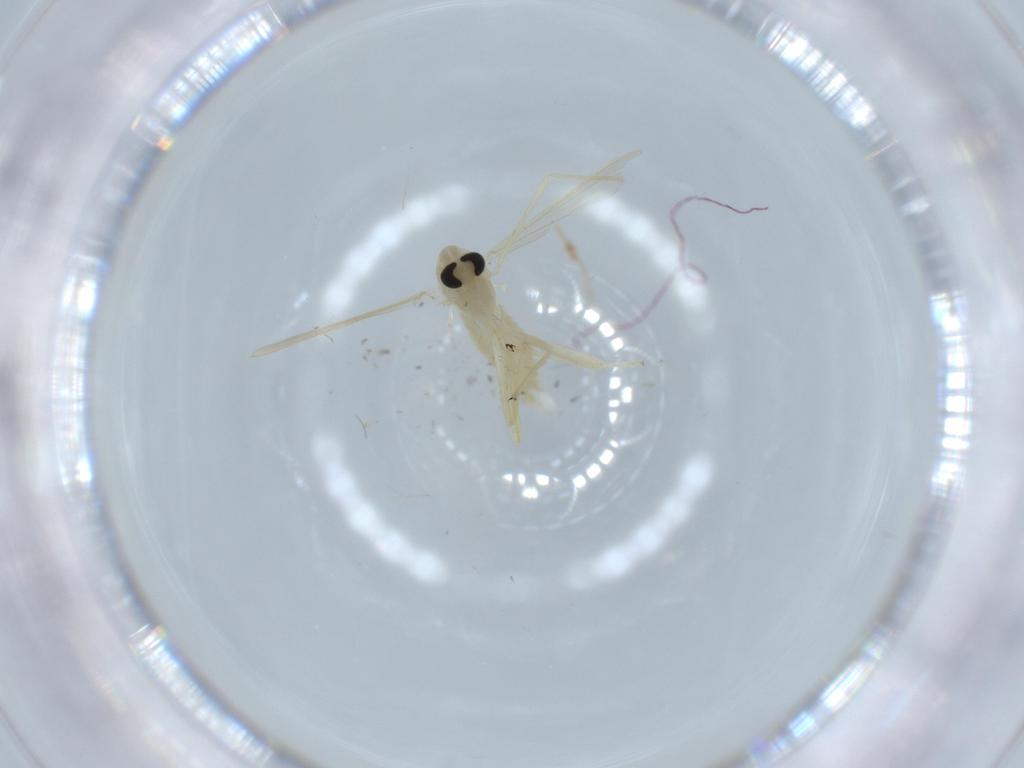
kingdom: Animalia
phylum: Arthropoda
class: Insecta
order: Diptera
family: Chironomidae
